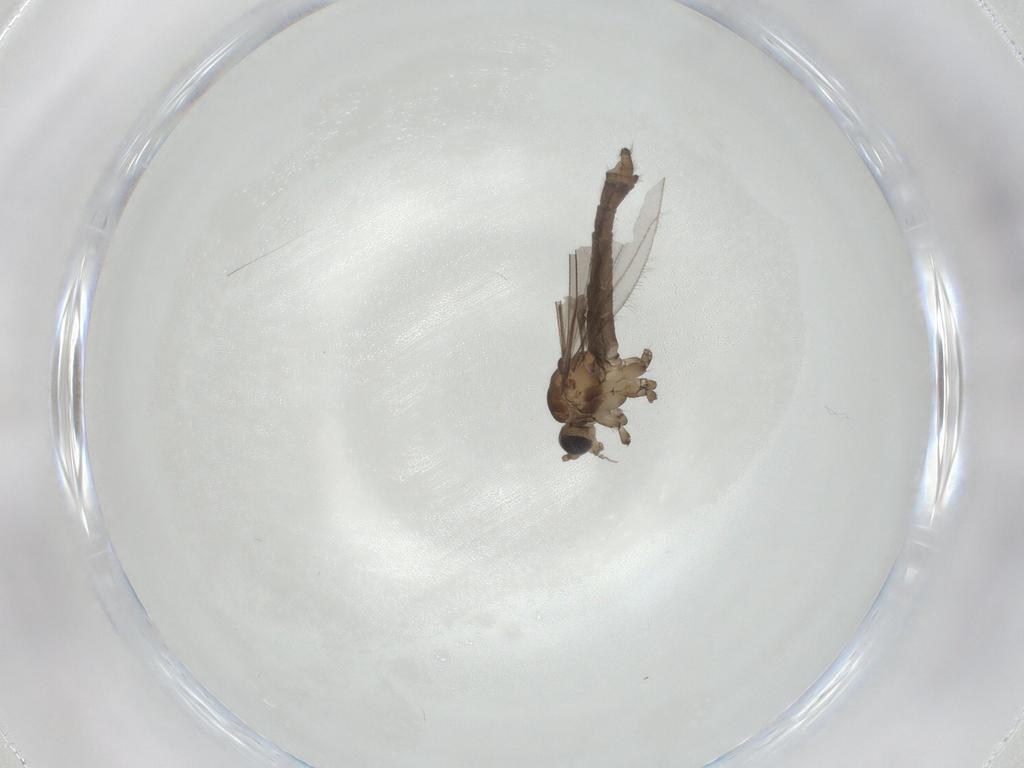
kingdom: Animalia
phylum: Arthropoda
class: Insecta
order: Diptera
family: Limoniidae
